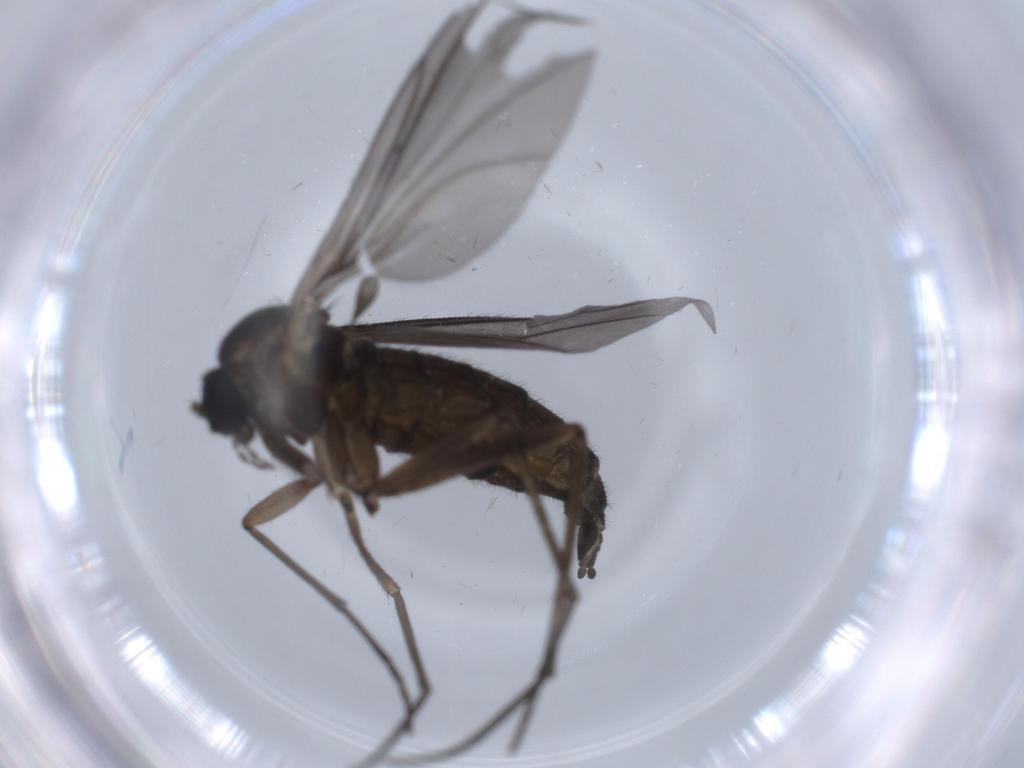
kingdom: Animalia
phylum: Arthropoda
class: Insecta
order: Diptera
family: Sciaridae
